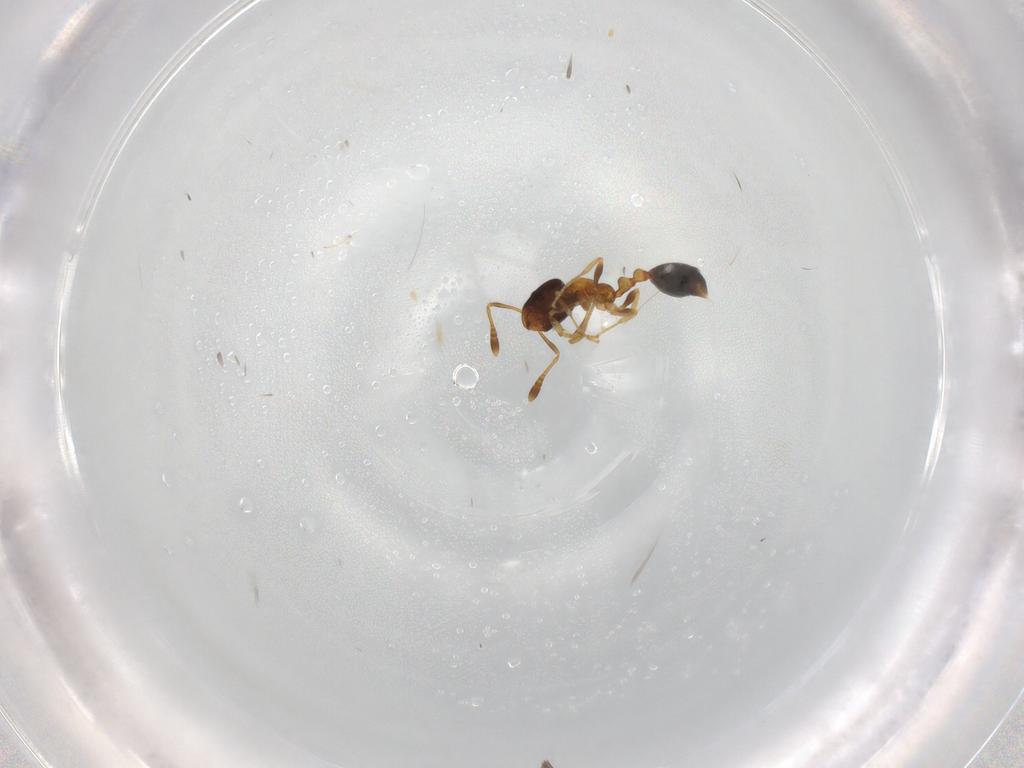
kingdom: Animalia
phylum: Arthropoda
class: Insecta
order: Hymenoptera
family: Formicidae
